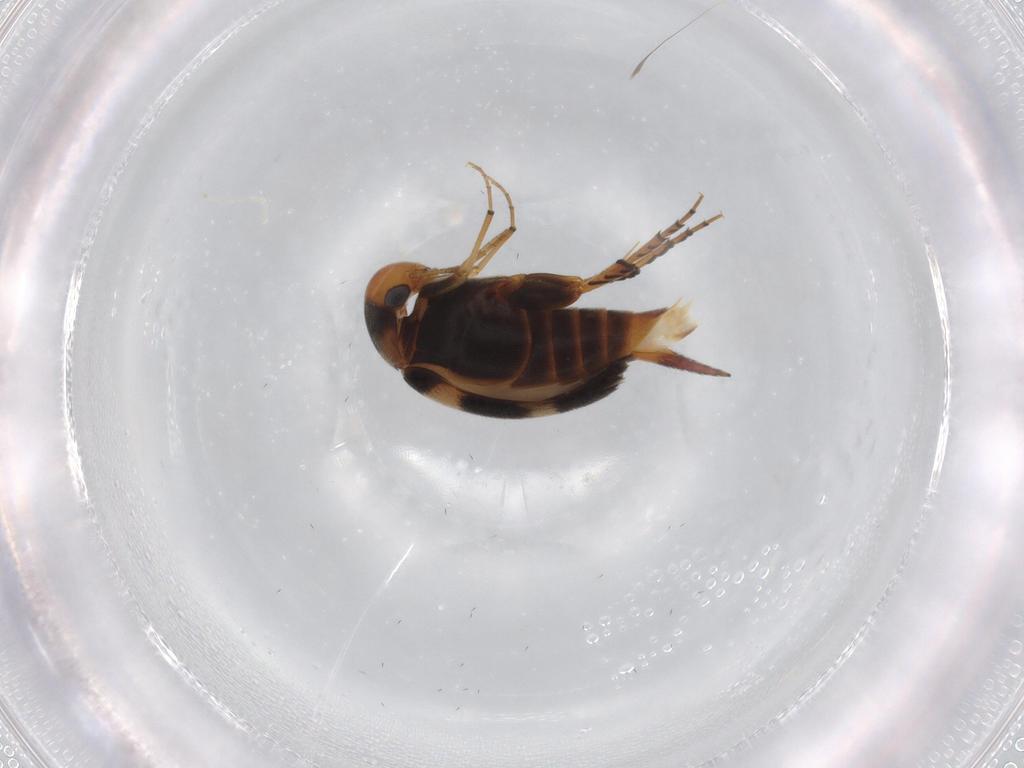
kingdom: Animalia
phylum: Arthropoda
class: Insecta
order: Coleoptera
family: Mordellidae
